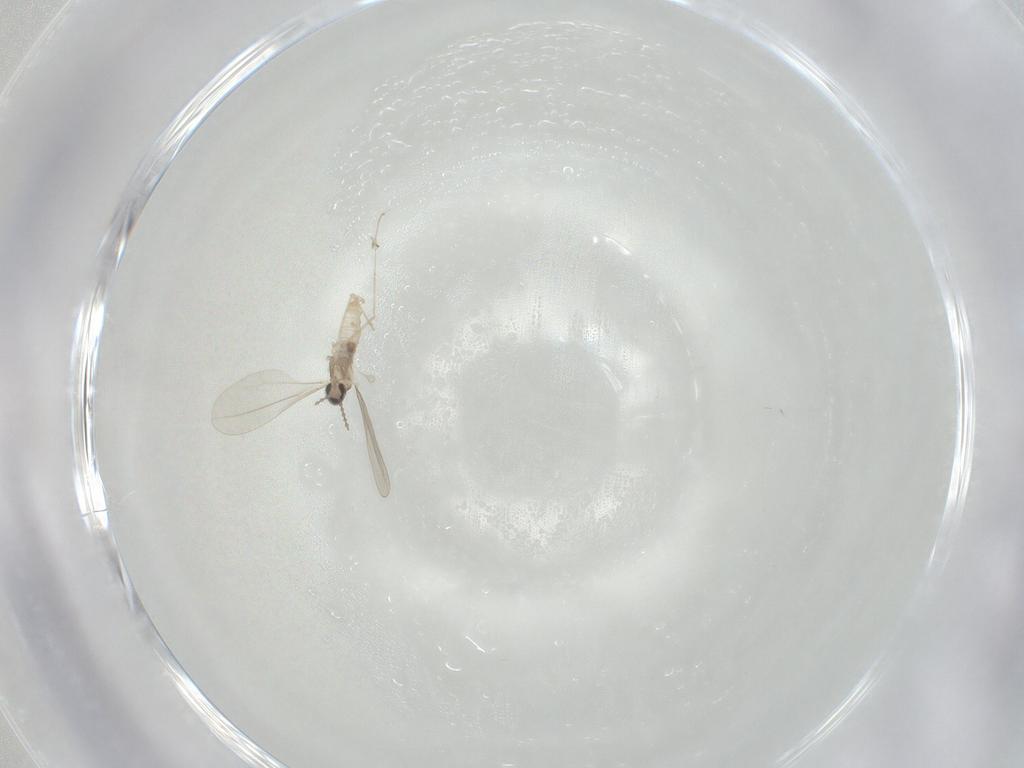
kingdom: Animalia
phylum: Arthropoda
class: Insecta
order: Diptera
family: Cecidomyiidae
